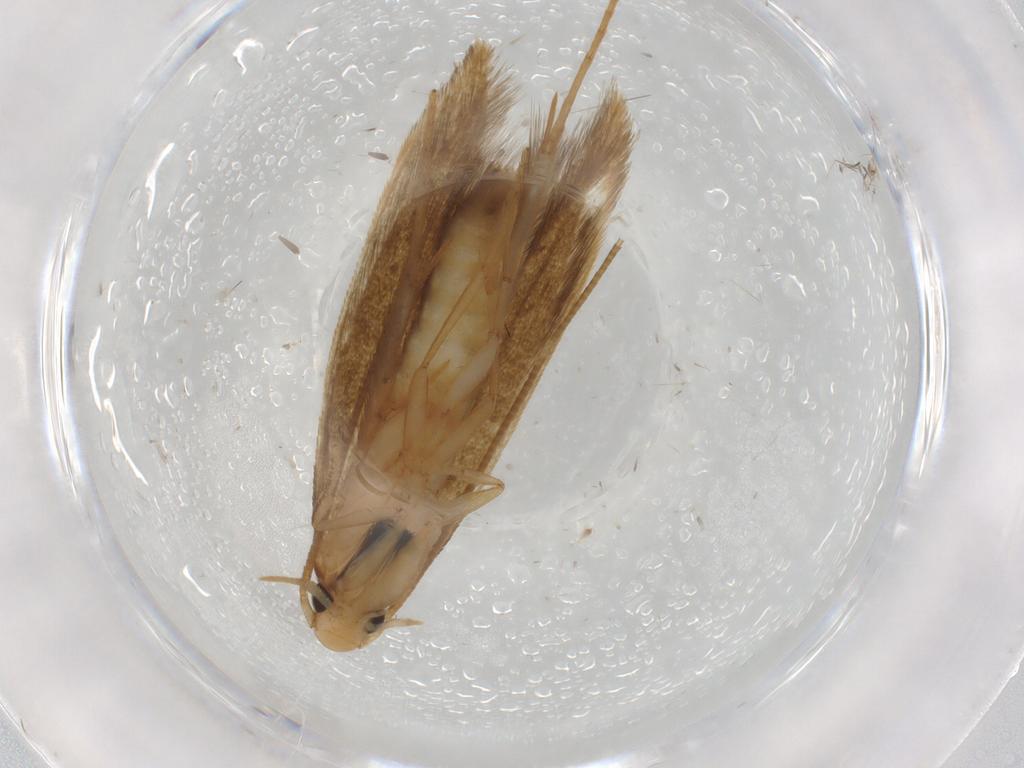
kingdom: Animalia
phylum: Arthropoda
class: Insecta
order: Lepidoptera
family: Tineidae
